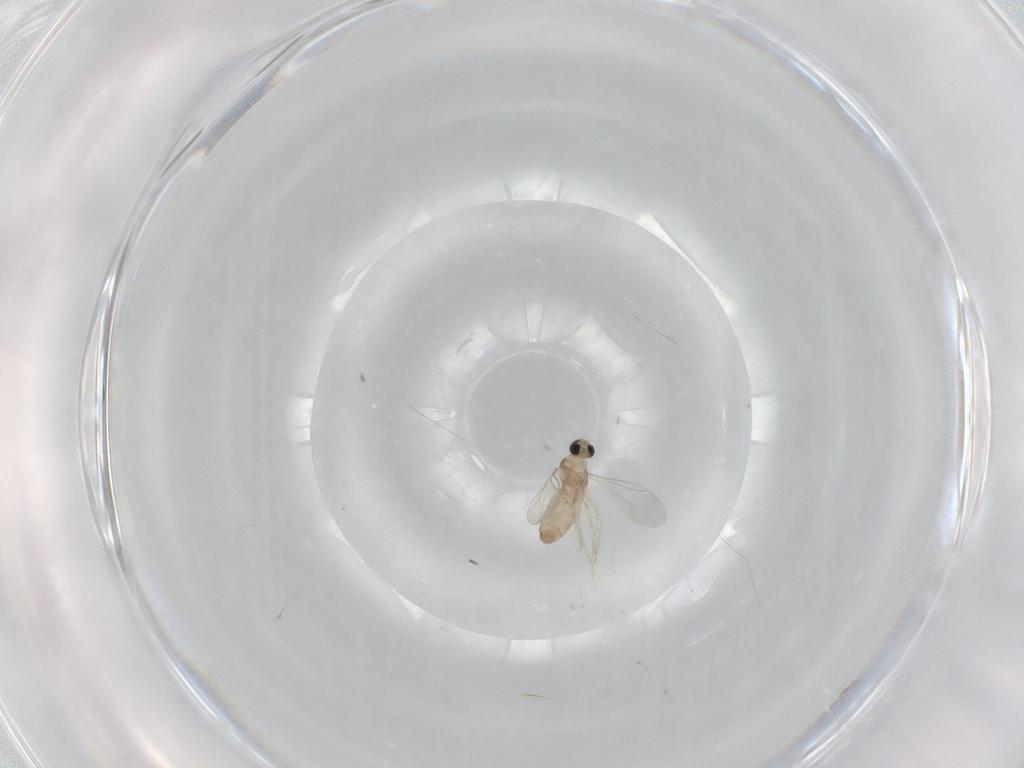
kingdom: Animalia
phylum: Arthropoda
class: Insecta
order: Diptera
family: Cecidomyiidae
